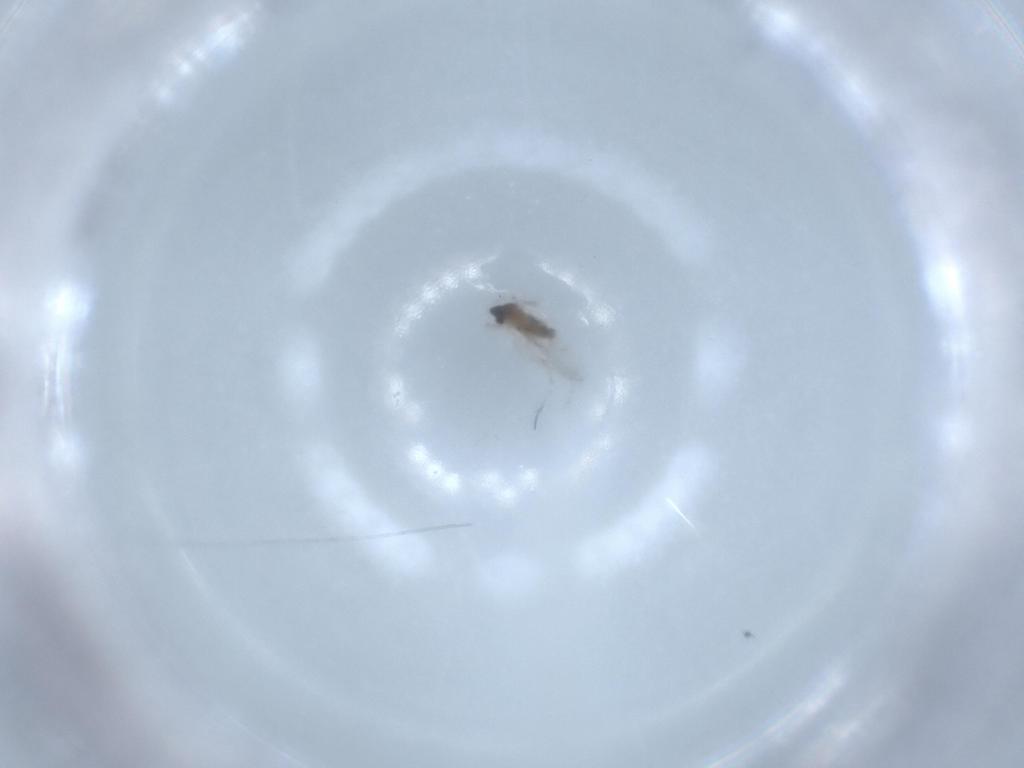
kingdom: Animalia
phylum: Arthropoda
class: Insecta
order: Diptera
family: Cecidomyiidae
